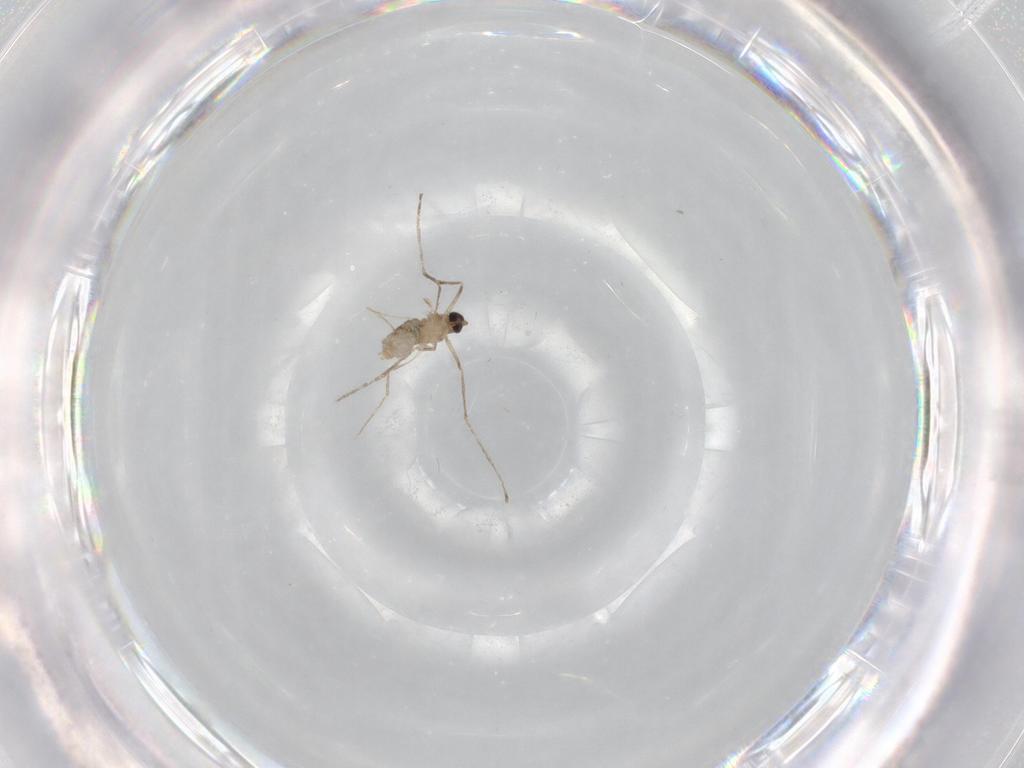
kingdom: Animalia
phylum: Arthropoda
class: Insecta
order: Diptera
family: Cecidomyiidae
